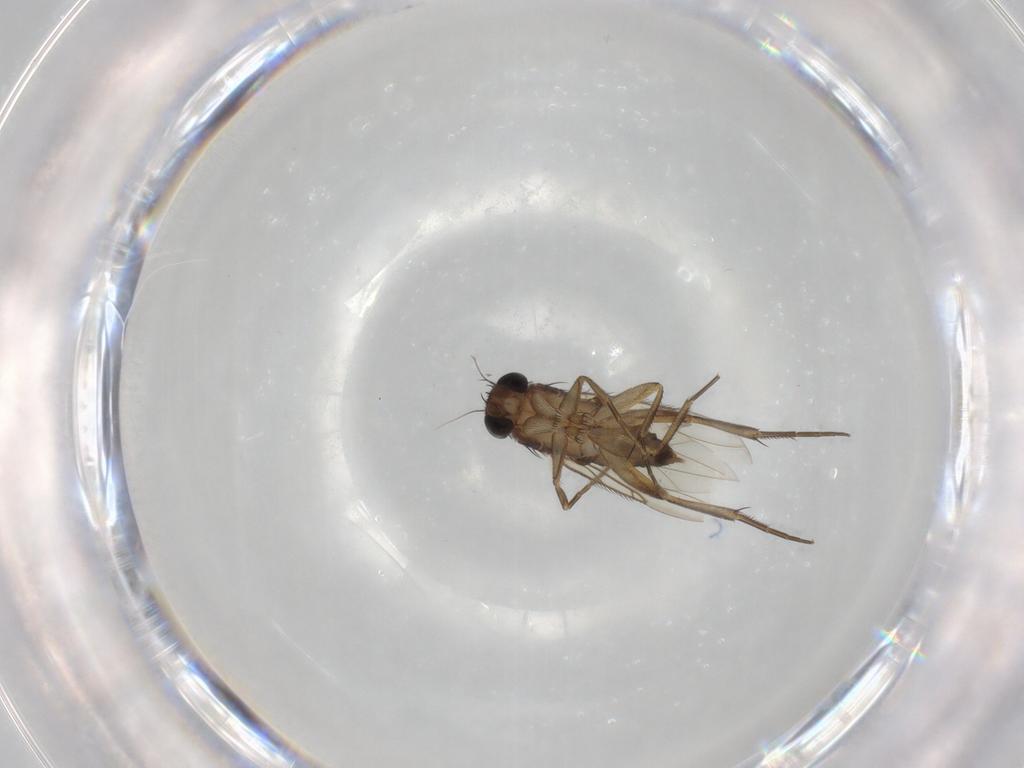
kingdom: Animalia
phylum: Arthropoda
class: Insecta
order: Diptera
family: Phoridae
